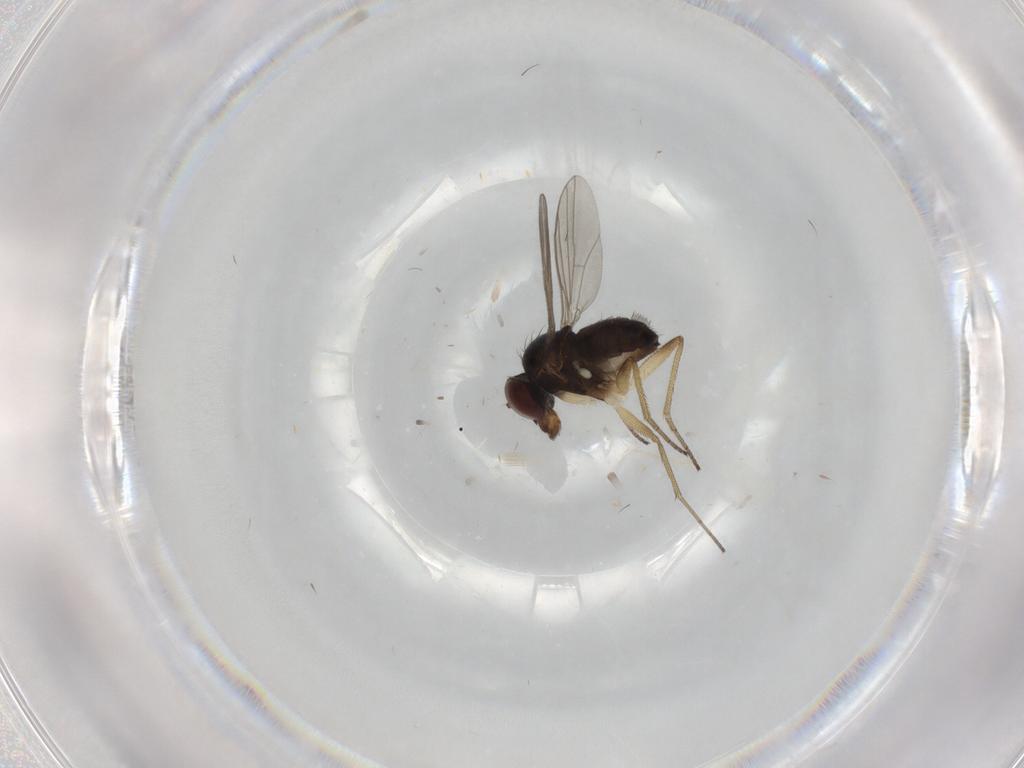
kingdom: Animalia
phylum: Arthropoda
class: Insecta
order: Diptera
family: Dolichopodidae
